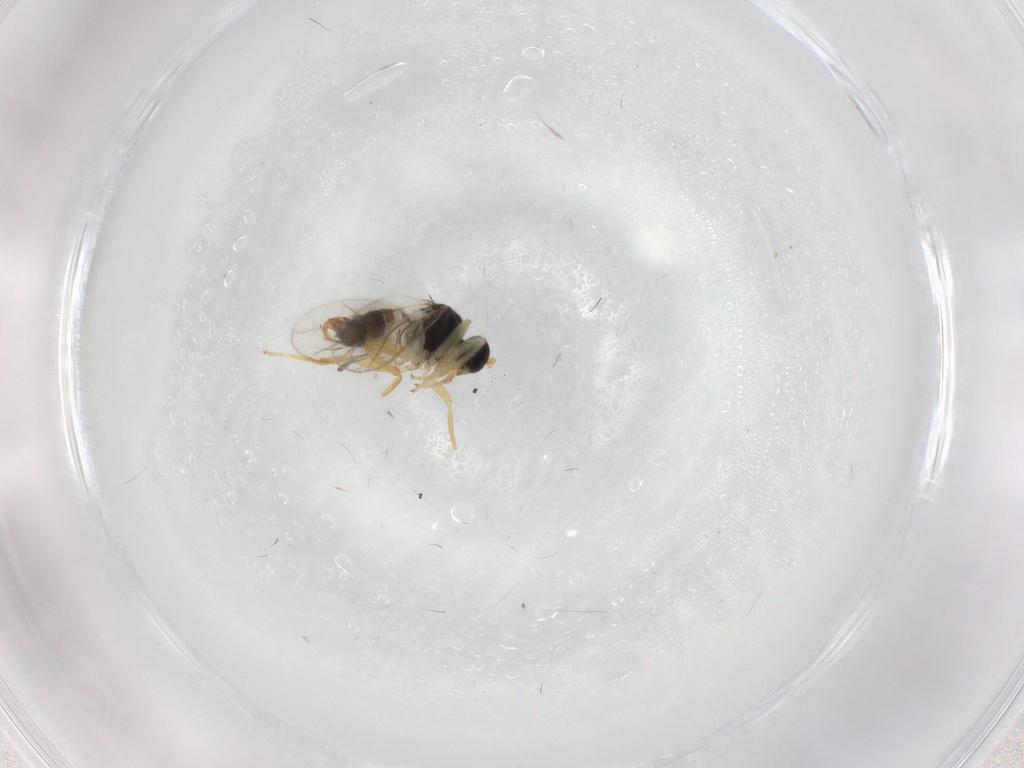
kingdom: Animalia
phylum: Arthropoda
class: Insecta
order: Diptera
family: Hybotidae
